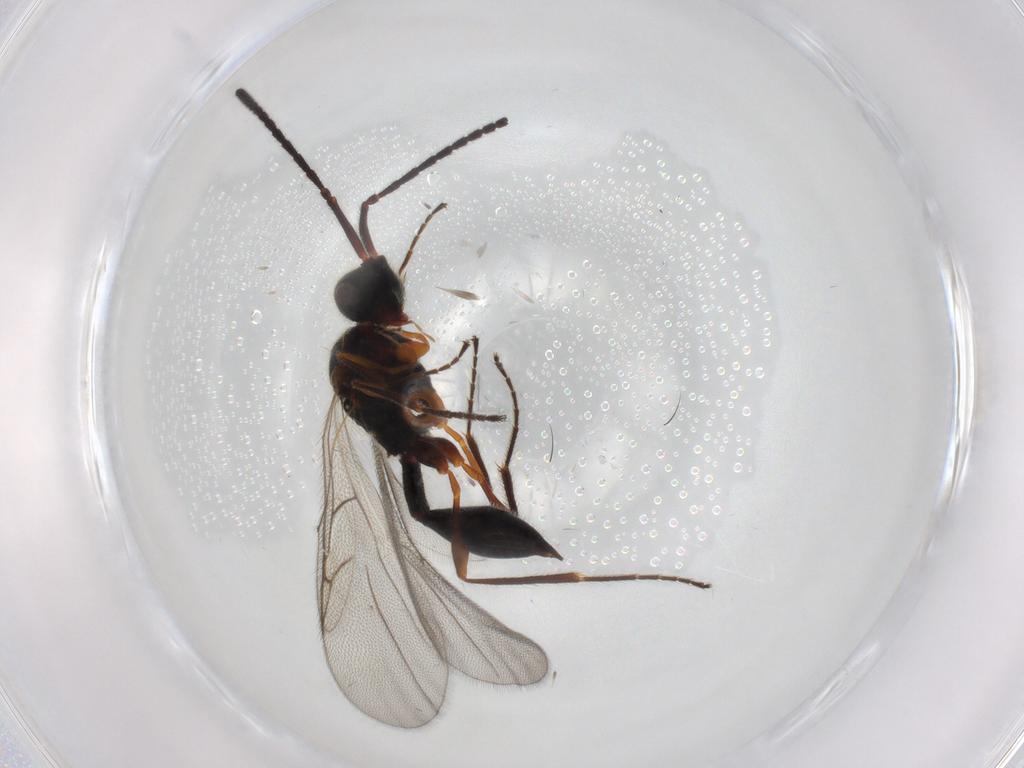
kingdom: Animalia
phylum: Arthropoda
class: Insecta
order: Hymenoptera
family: Diapriidae
